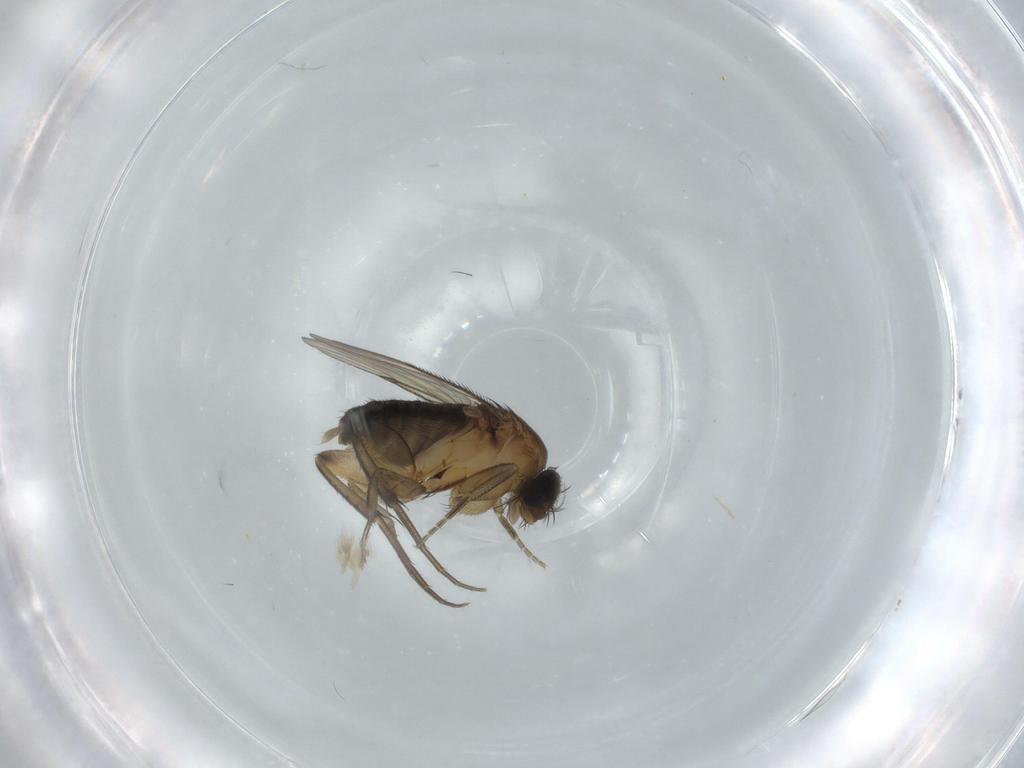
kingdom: Animalia
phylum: Arthropoda
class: Insecta
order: Diptera
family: Phoridae
